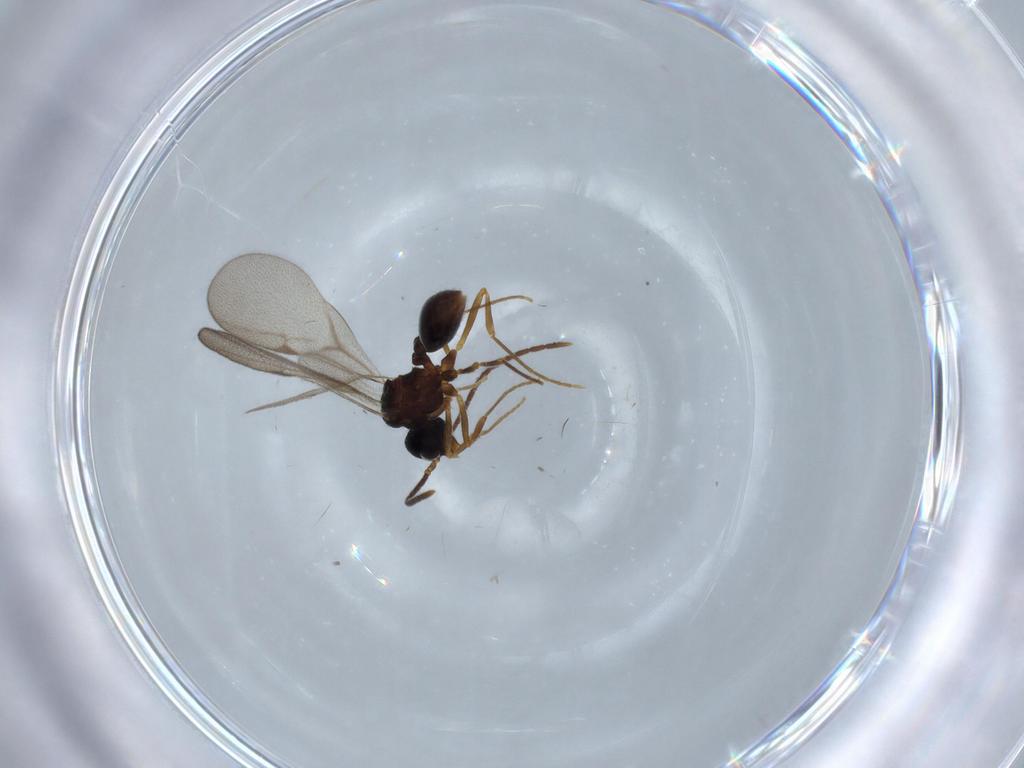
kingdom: Animalia
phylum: Arthropoda
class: Insecta
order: Hymenoptera
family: Formicidae
